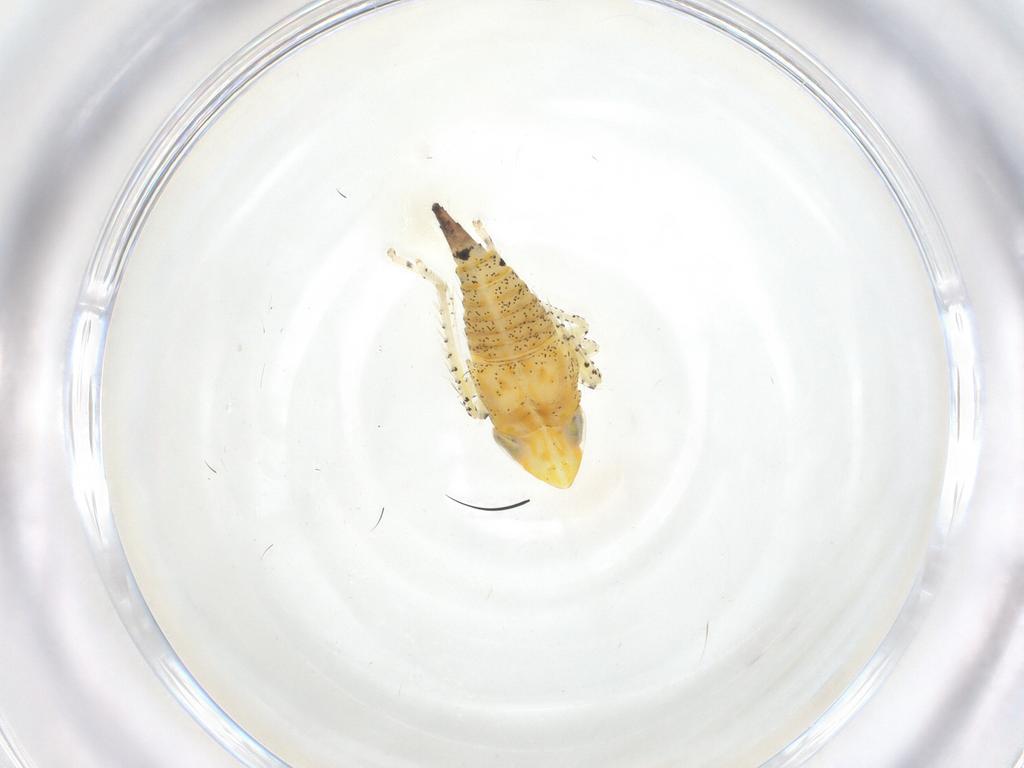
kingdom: Animalia
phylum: Arthropoda
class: Insecta
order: Hemiptera
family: Cicadellidae
